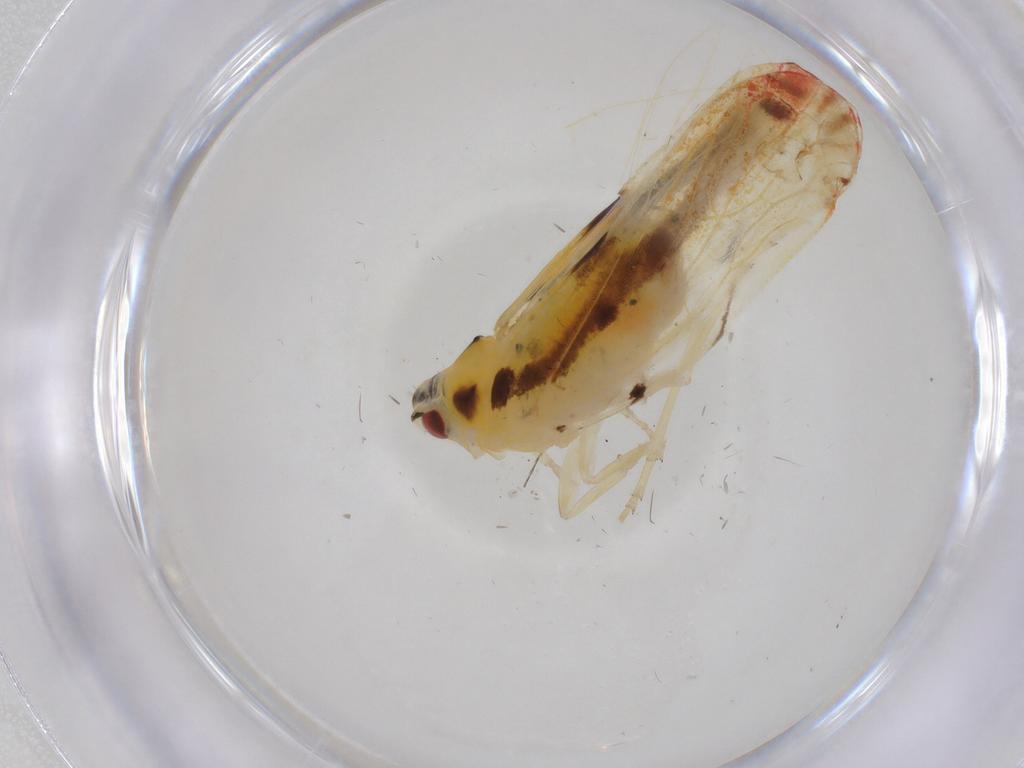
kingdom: Animalia
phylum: Arthropoda
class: Insecta
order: Hemiptera
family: Derbidae
